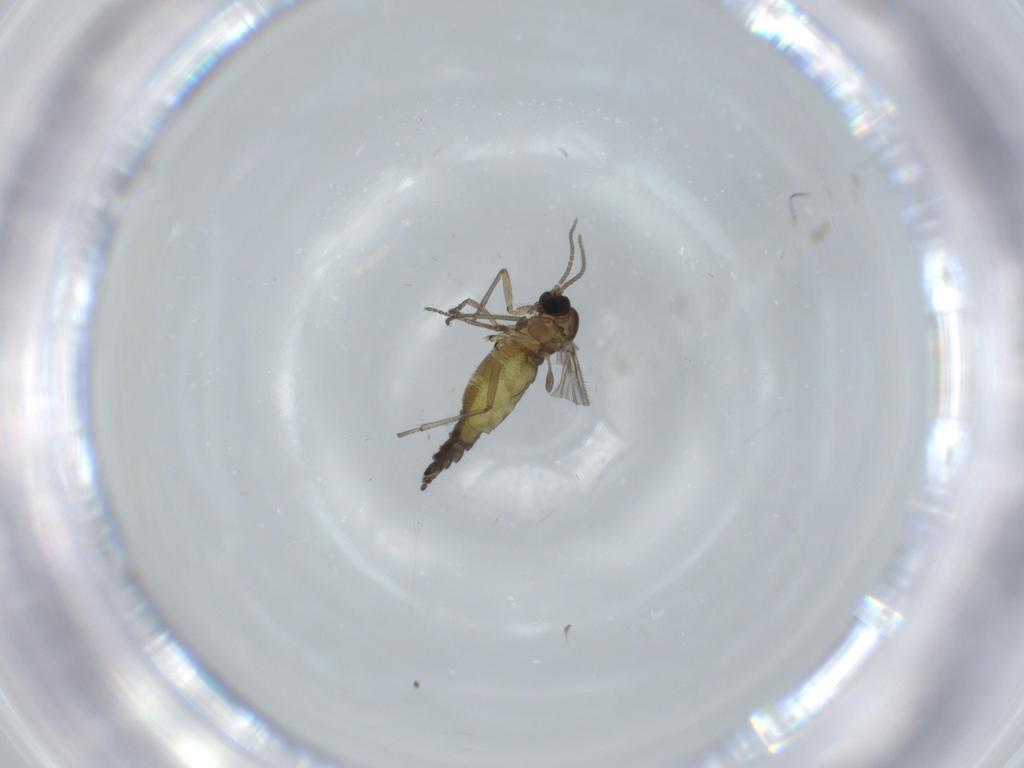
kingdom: Animalia
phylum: Arthropoda
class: Insecta
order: Diptera
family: Sciaridae
